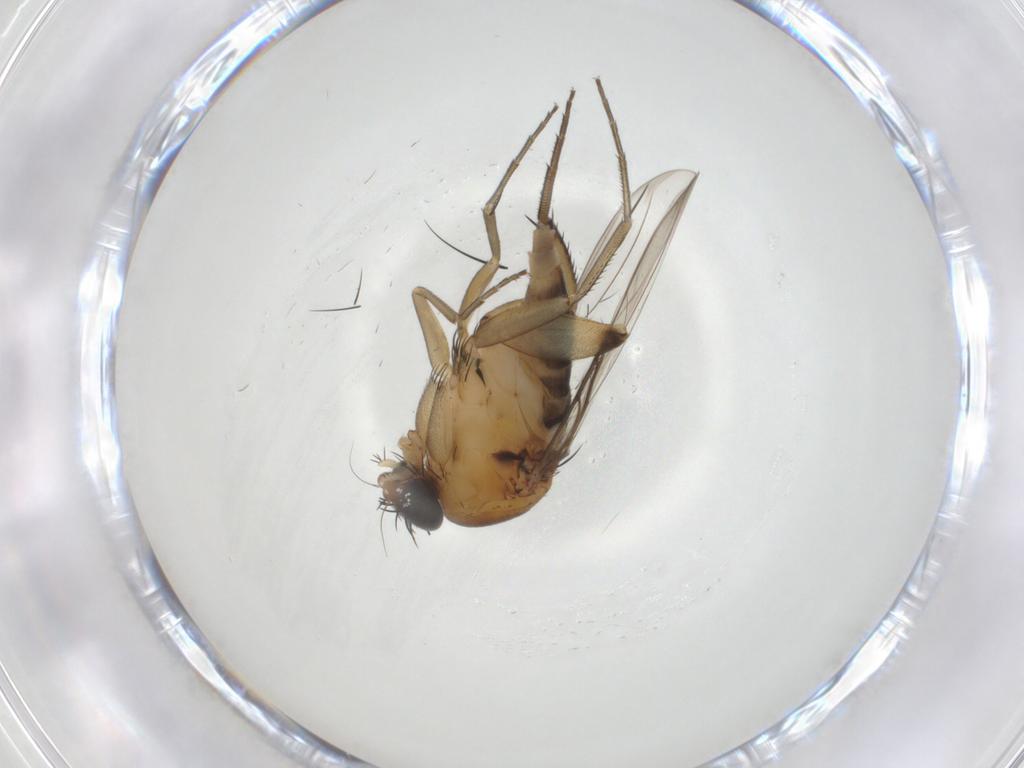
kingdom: Animalia
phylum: Arthropoda
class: Insecta
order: Diptera
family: Phoridae
